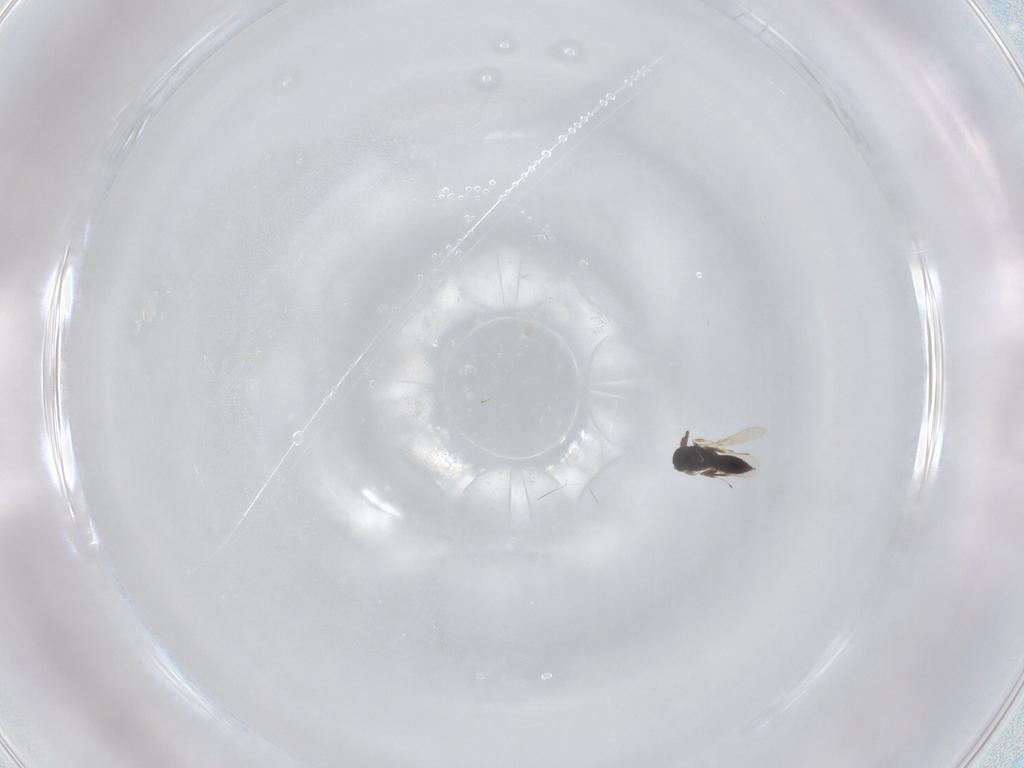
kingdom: Animalia
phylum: Arthropoda
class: Insecta
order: Hymenoptera
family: Scelionidae
